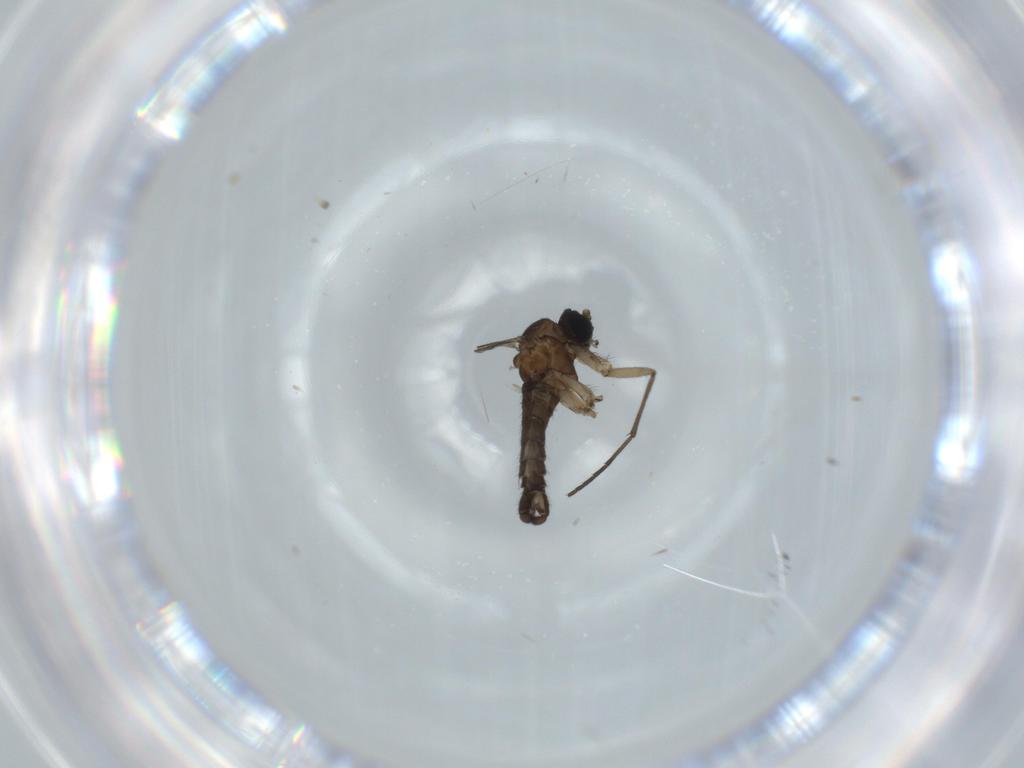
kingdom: Animalia
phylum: Arthropoda
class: Insecta
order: Diptera
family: Sciaridae
